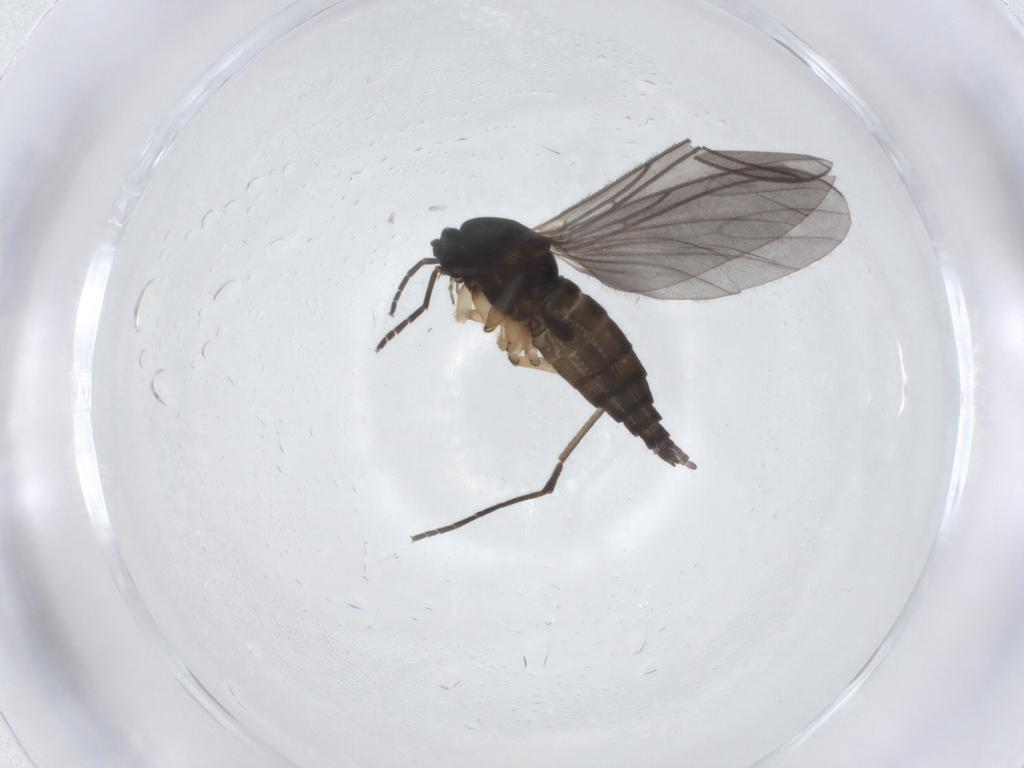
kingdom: Animalia
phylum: Arthropoda
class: Insecta
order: Diptera
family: Sciaridae
